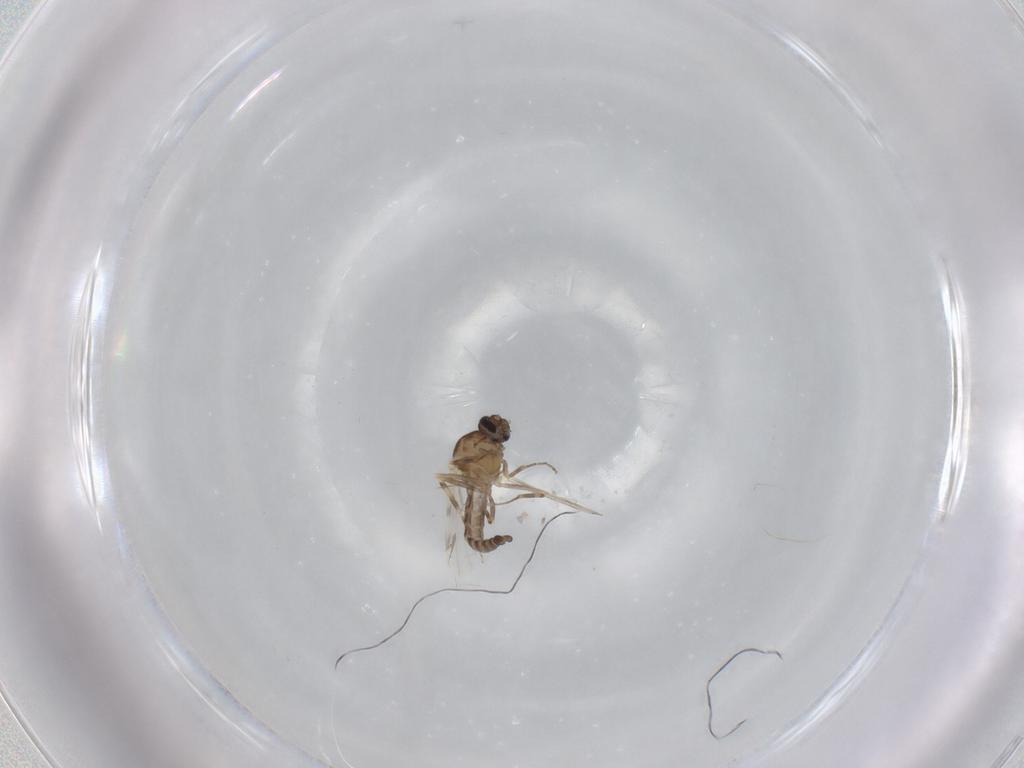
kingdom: Animalia
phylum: Arthropoda
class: Insecta
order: Diptera
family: Ceratopogonidae
